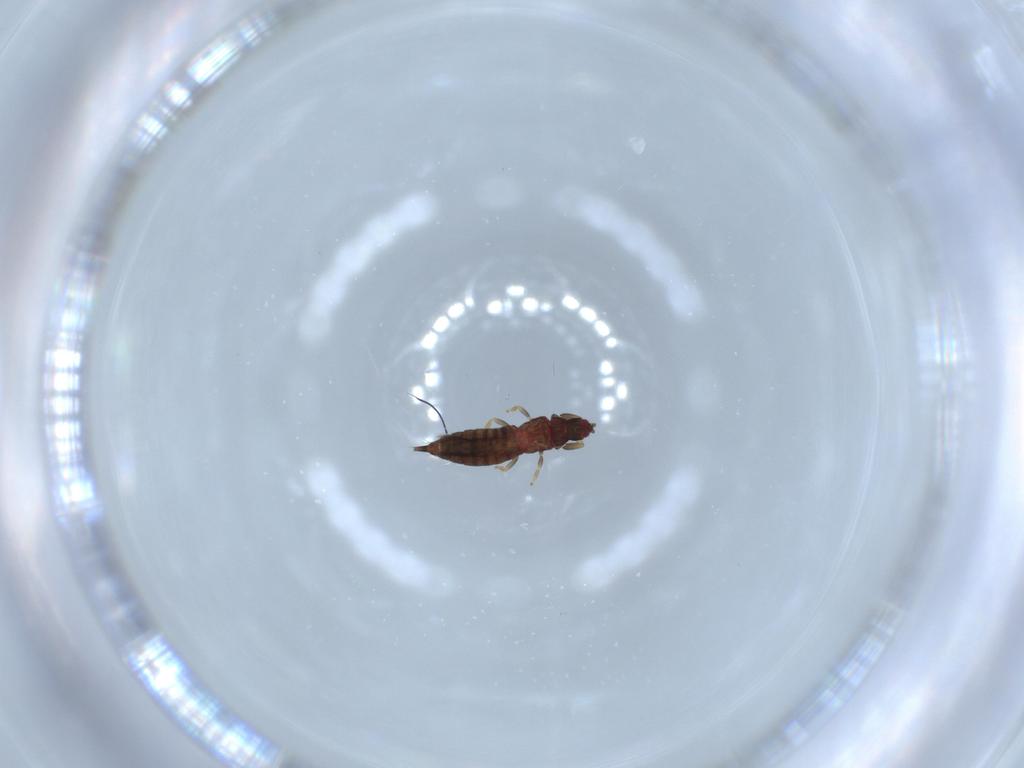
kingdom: Animalia
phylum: Arthropoda
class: Insecta
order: Thysanoptera
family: Phlaeothripidae
